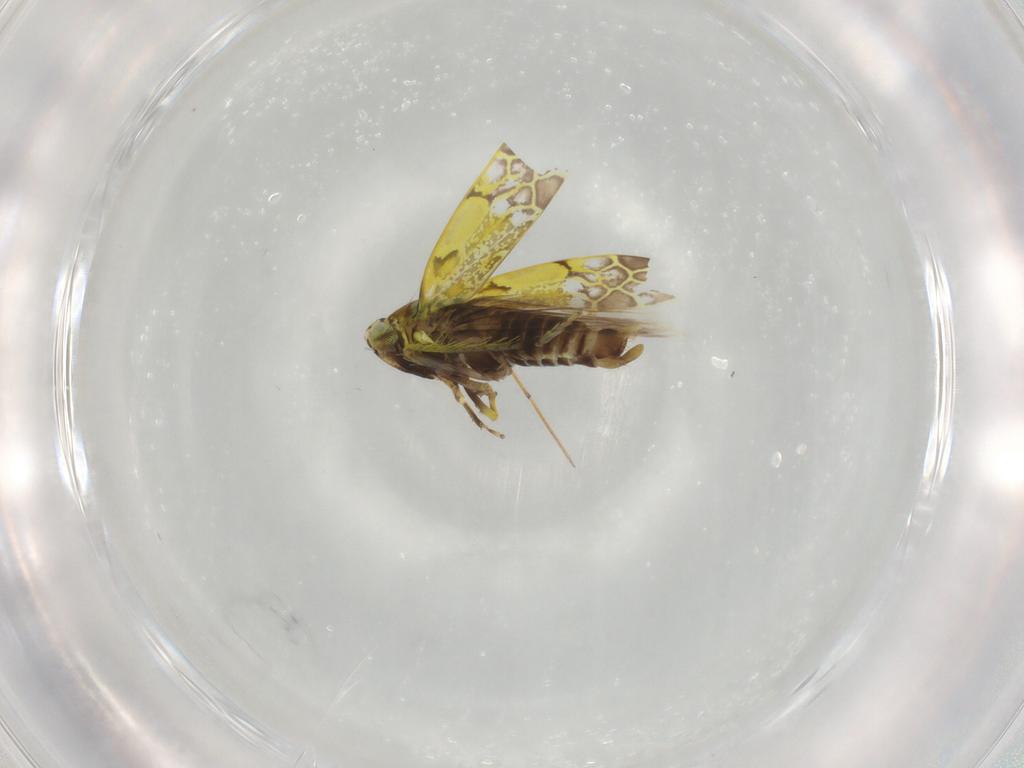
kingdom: Animalia
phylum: Arthropoda
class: Insecta
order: Hemiptera
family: Cicadellidae
